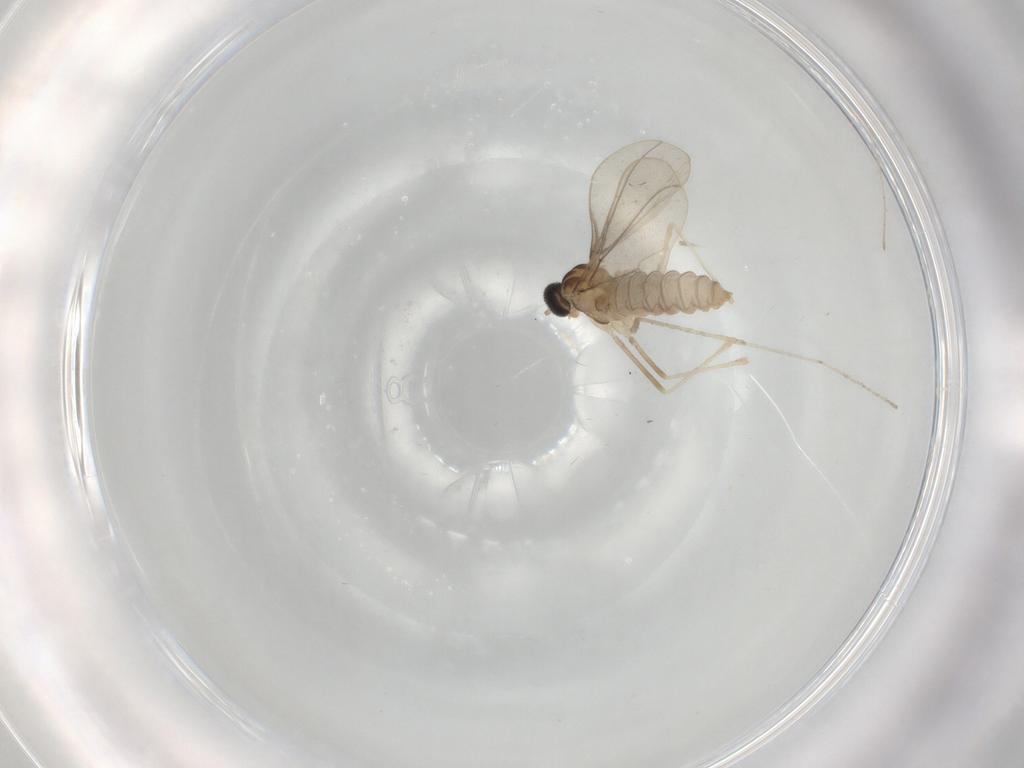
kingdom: Animalia
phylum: Arthropoda
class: Insecta
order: Diptera
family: Cecidomyiidae
